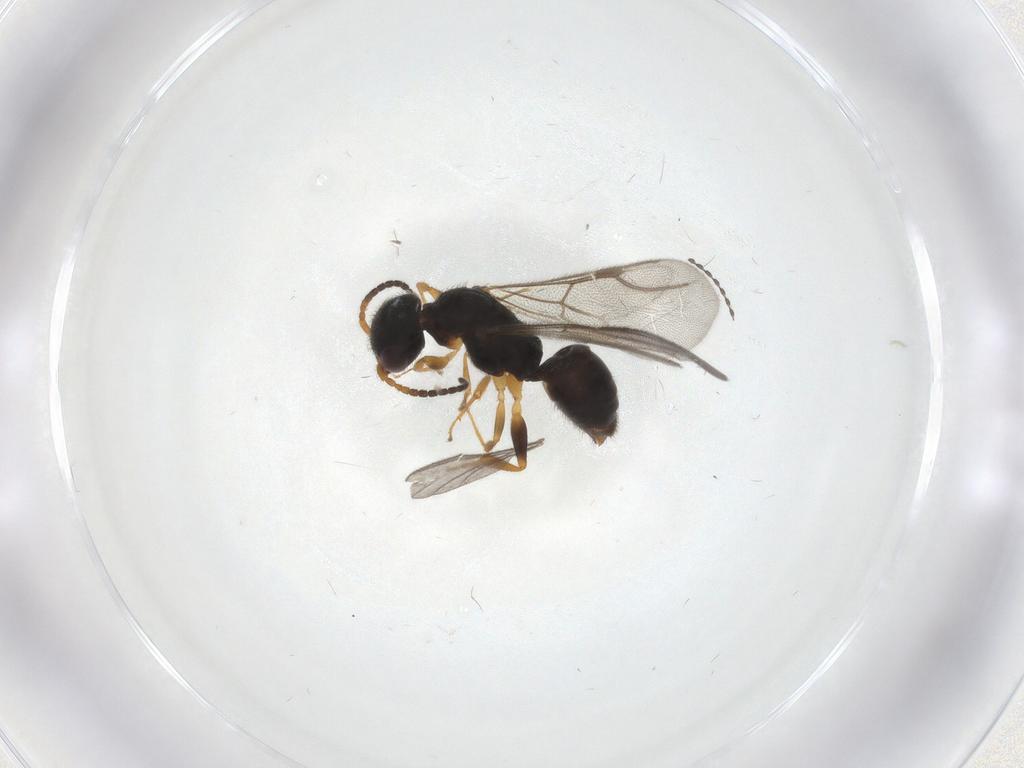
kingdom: Animalia
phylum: Arthropoda
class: Insecta
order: Hymenoptera
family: Bethylidae
